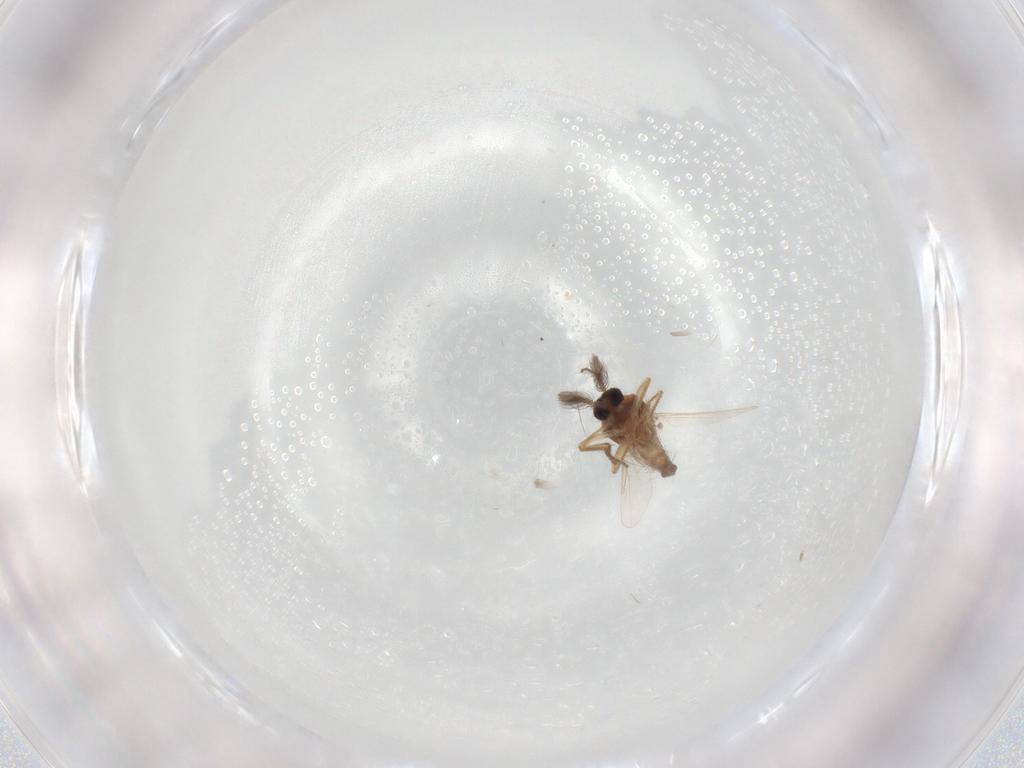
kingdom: Animalia
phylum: Arthropoda
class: Insecta
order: Diptera
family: Ceratopogonidae
